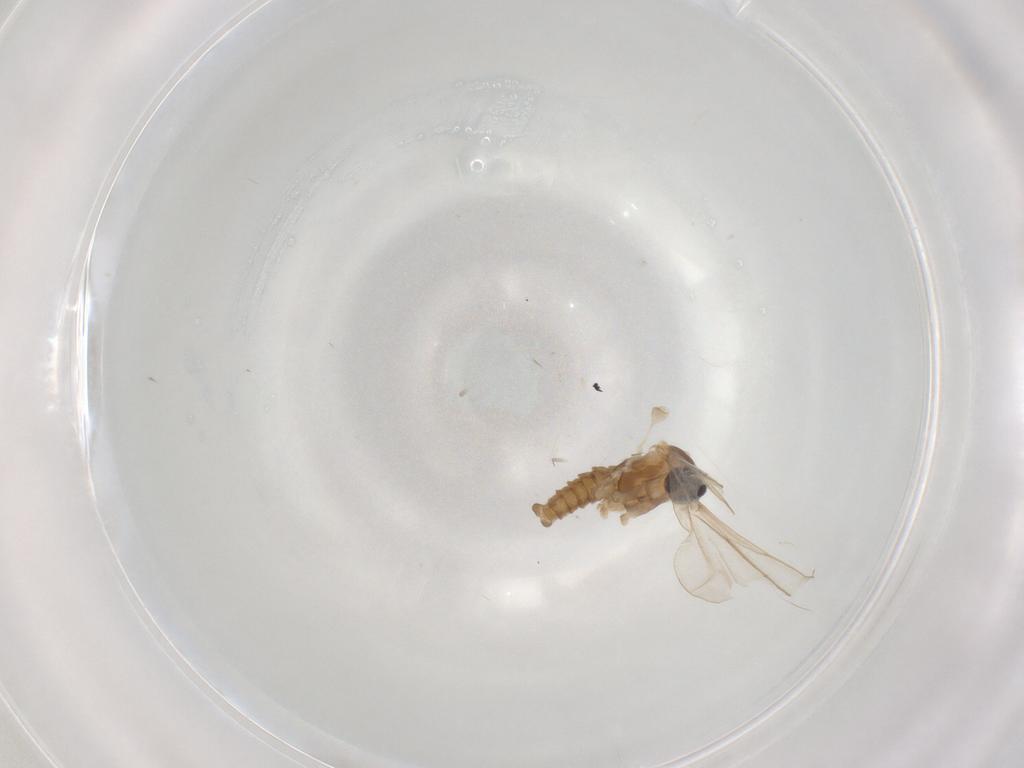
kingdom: Animalia
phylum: Arthropoda
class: Insecta
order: Diptera
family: Cecidomyiidae
